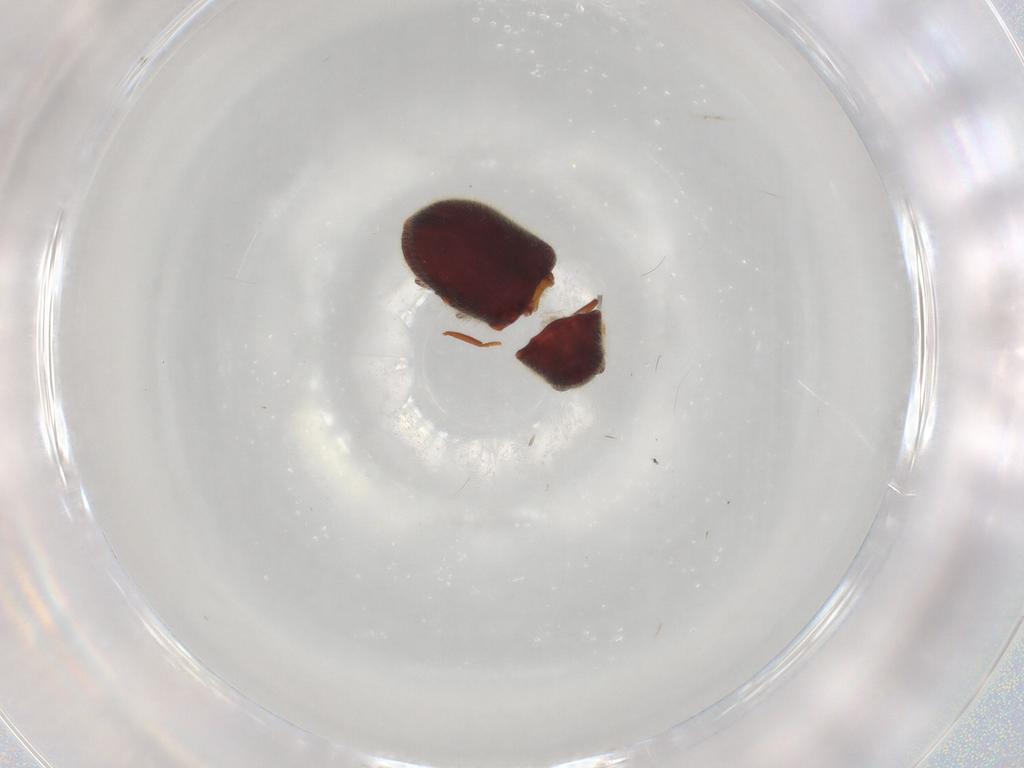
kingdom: Animalia
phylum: Arthropoda
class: Insecta
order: Coleoptera
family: Ptinidae
